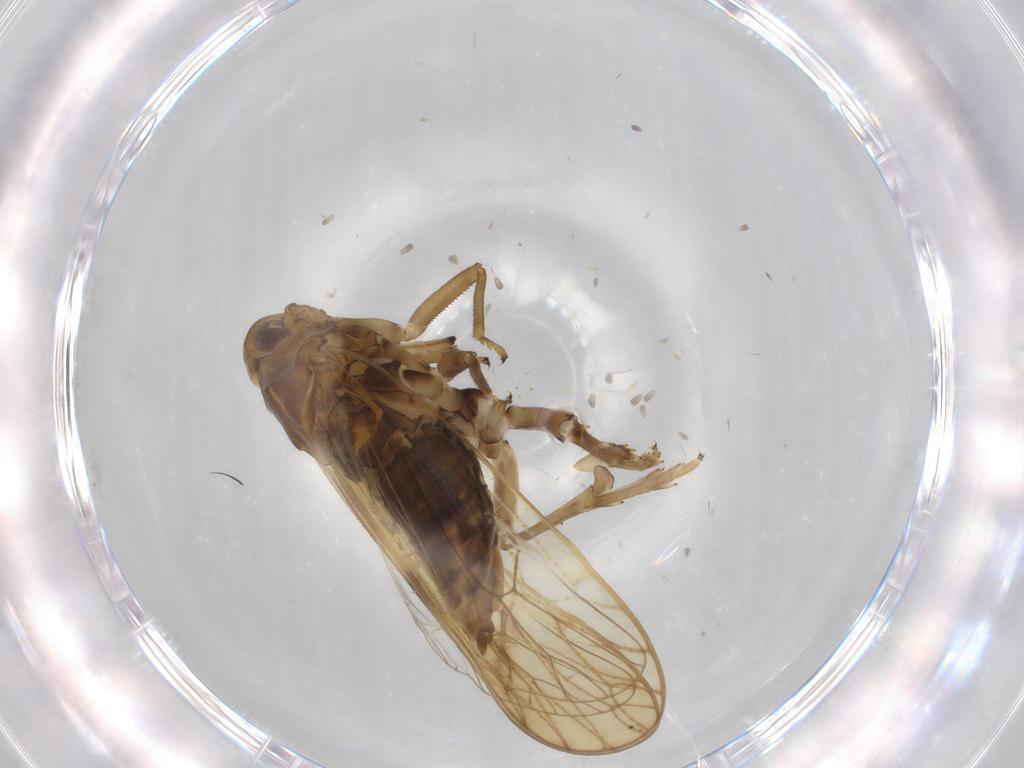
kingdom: Animalia
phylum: Arthropoda
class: Insecta
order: Hemiptera
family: Delphacidae
